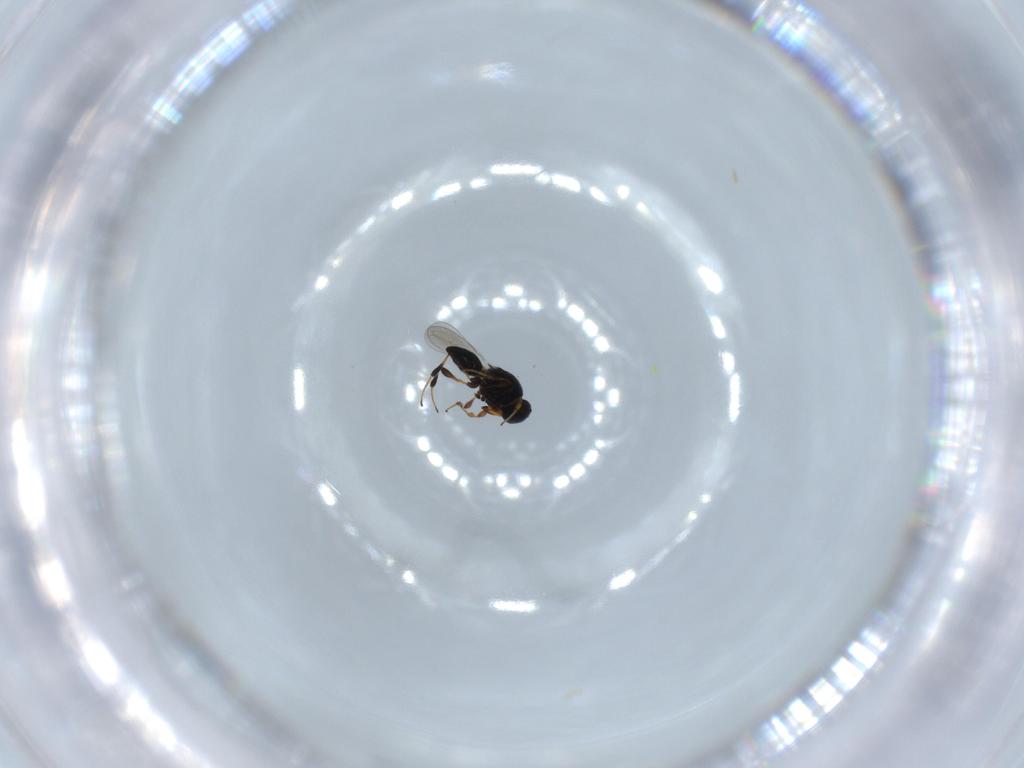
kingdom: Animalia
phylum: Arthropoda
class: Insecta
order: Hymenoptera
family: Platygastridae
